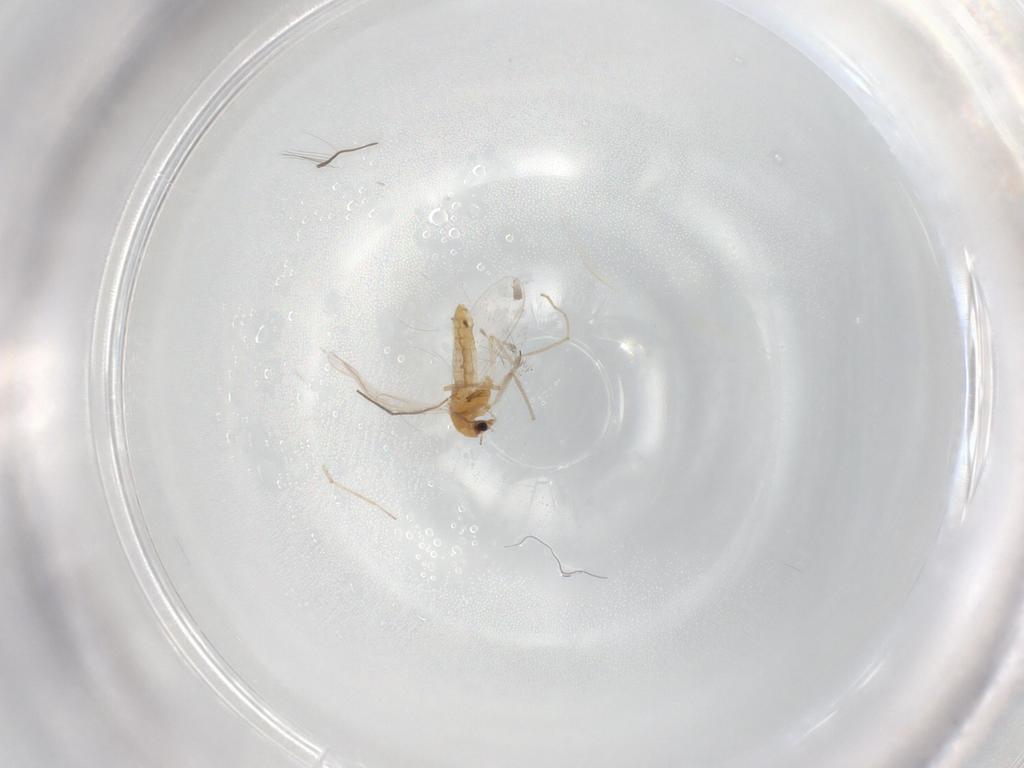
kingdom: Animalia
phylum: Arthropoda
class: Insecta
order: Diptera
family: Chironomidae
